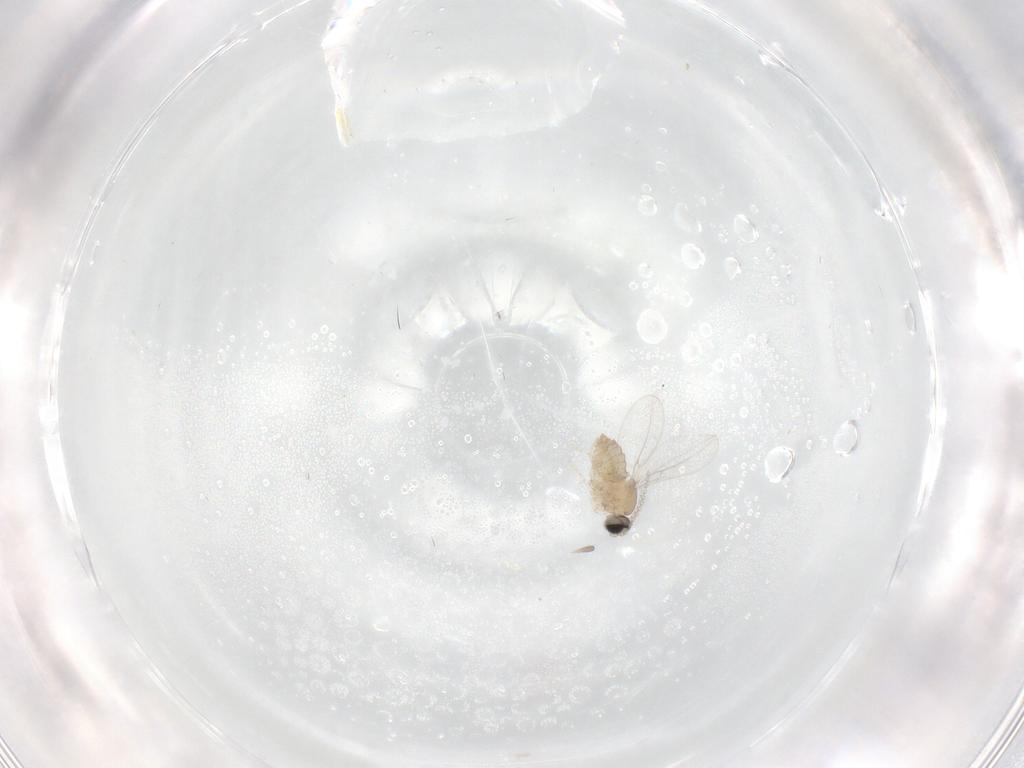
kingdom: Animalia
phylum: Arthropoda
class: Insecta
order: Diptera
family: Cecidomyiidae
